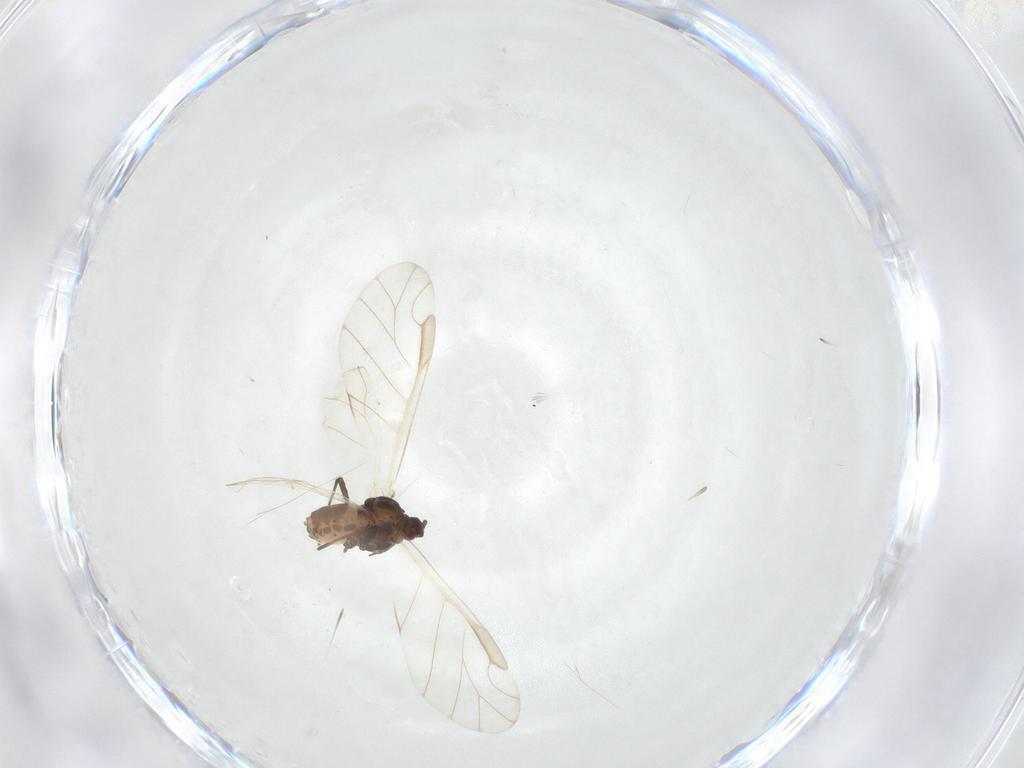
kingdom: Animalia
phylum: Arthropoda
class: Insecta
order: Hemiptera
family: Aphididae
